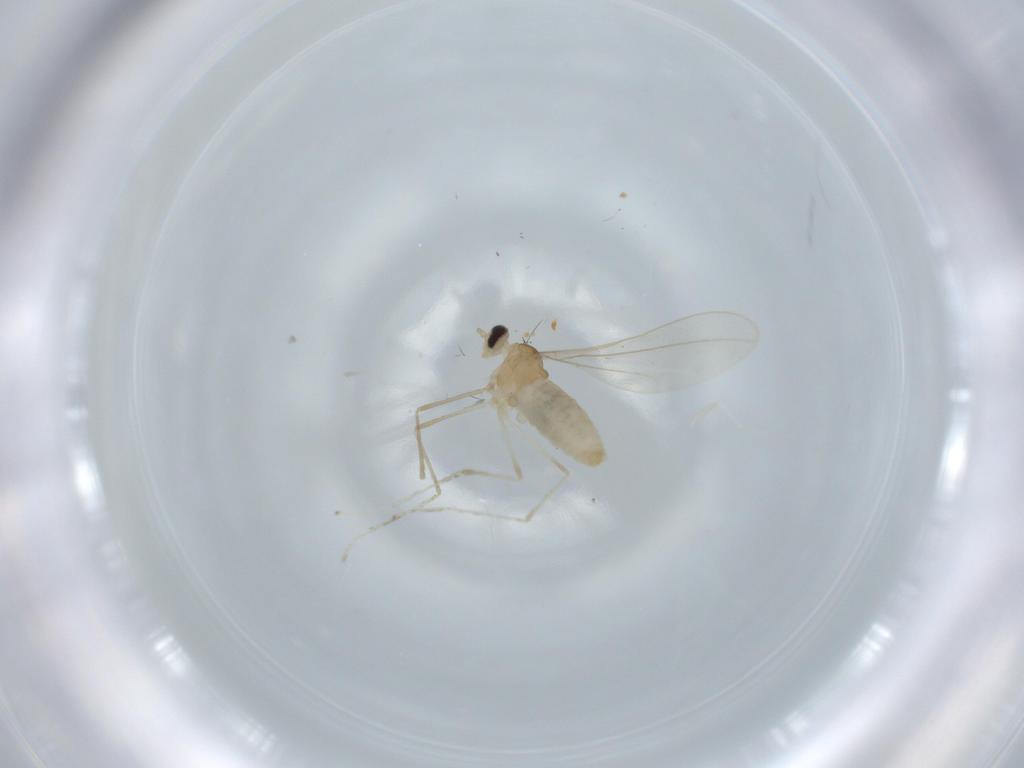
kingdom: Animalia
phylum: Arthropoda
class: Insecta
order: Diptera
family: Cecidomyiidae
